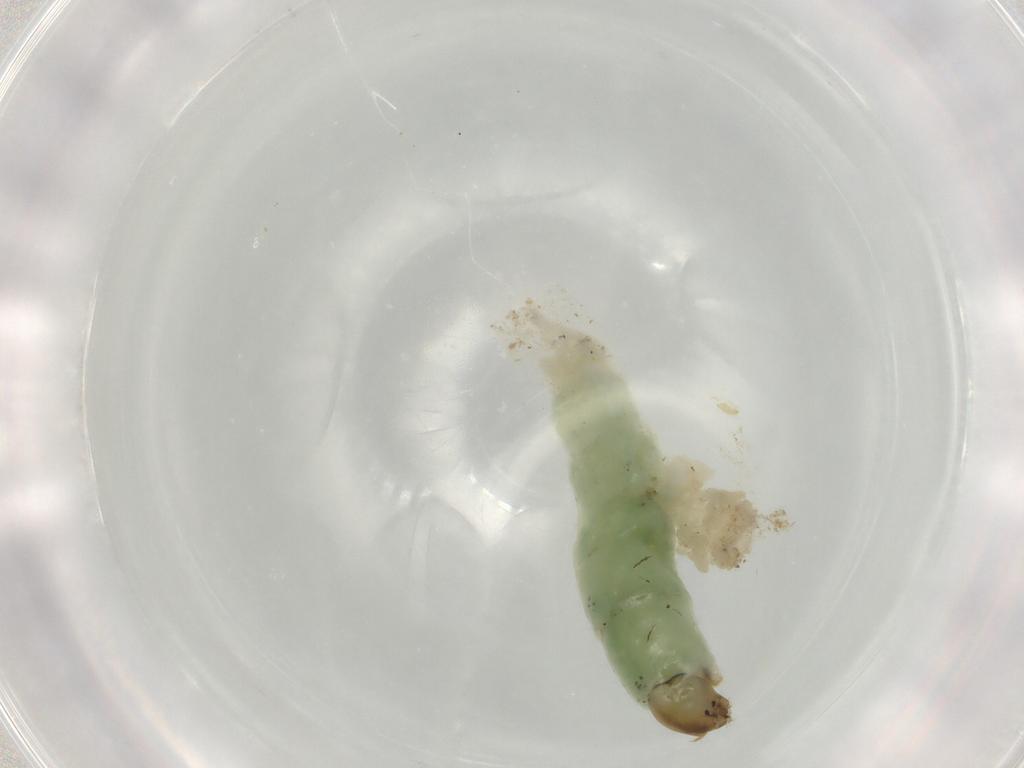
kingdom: Animalia
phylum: Arthropoda
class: Insecta
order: Diptera
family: Chironomidae
